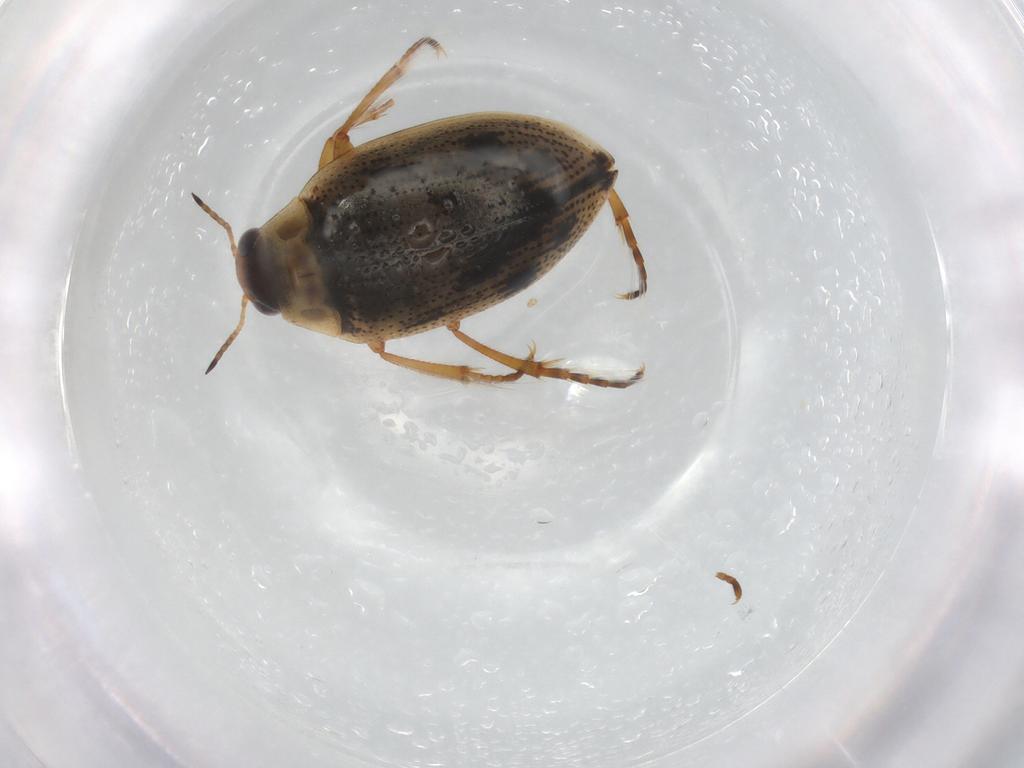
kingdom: Animalia
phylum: Arthropoda
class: Insecta
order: Coleoptera
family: Haliplidae
